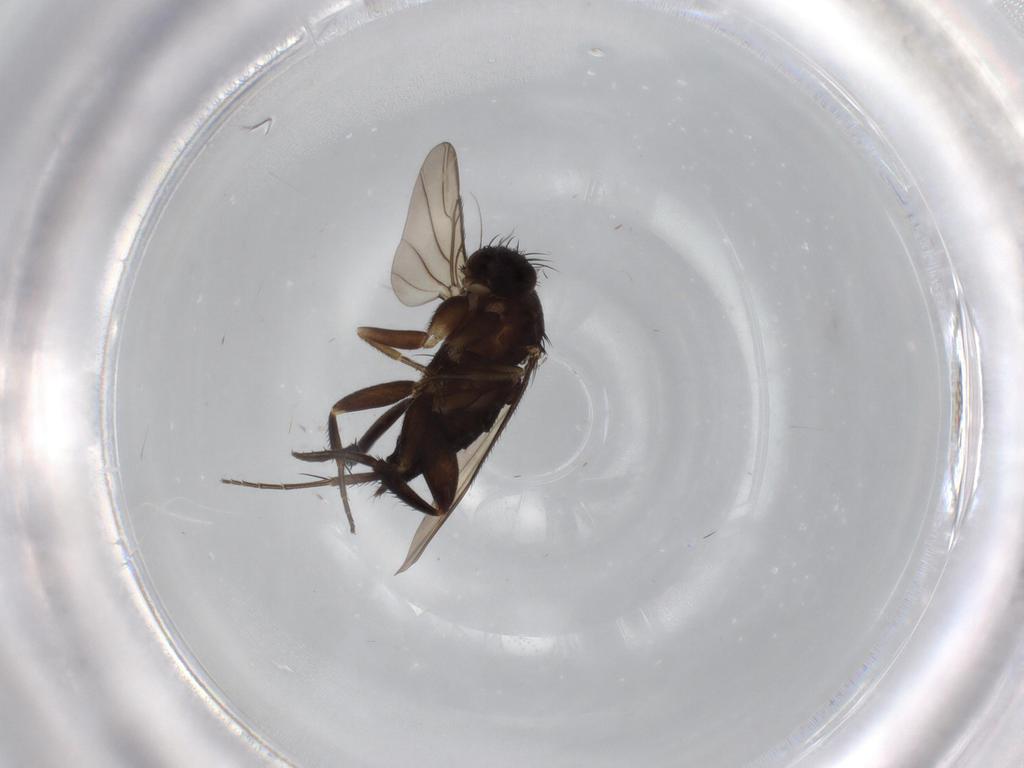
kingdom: Animalia
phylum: Arthropoda
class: Insecta
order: Diptera
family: Phoridae
